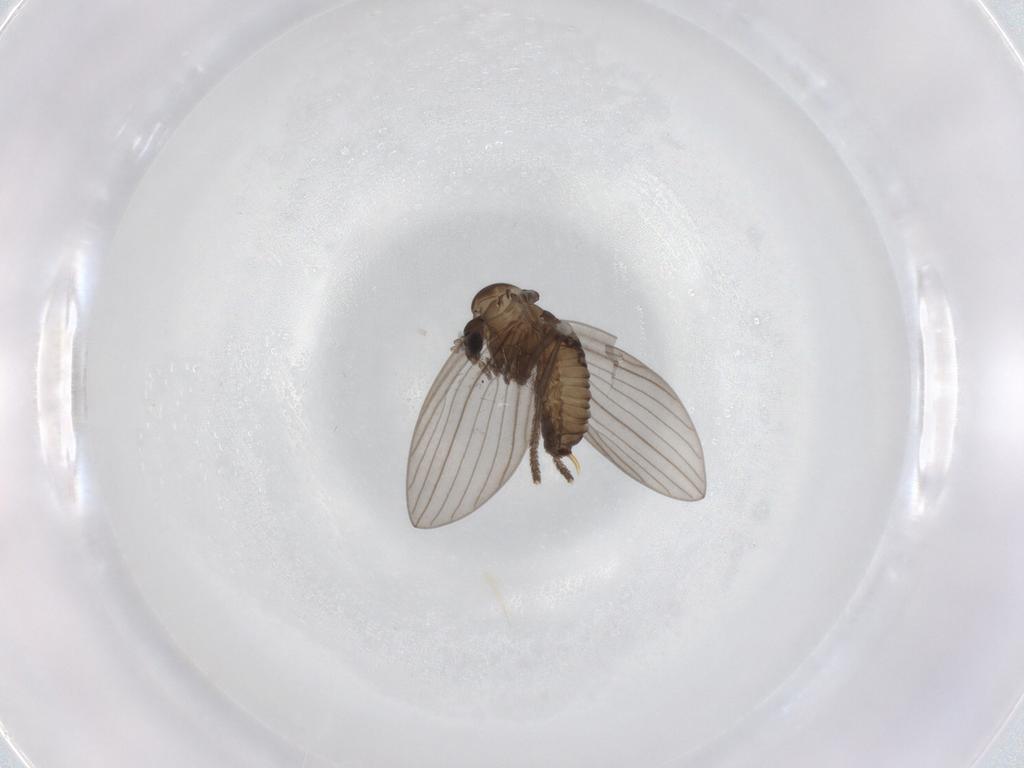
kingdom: Animalia
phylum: Arthropoda
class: Insecta
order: Diptera
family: Psychodidae
